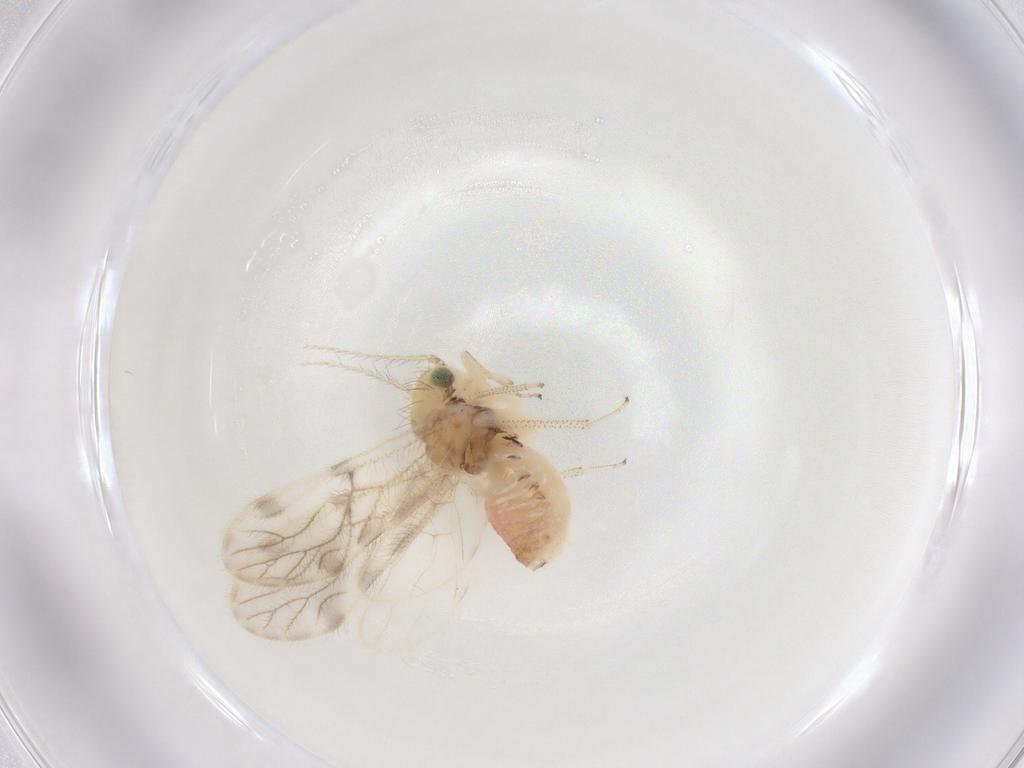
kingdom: Animalia
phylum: Arthropoda
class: Insecta
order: Psocodea
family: Pseudocaeciliidae
